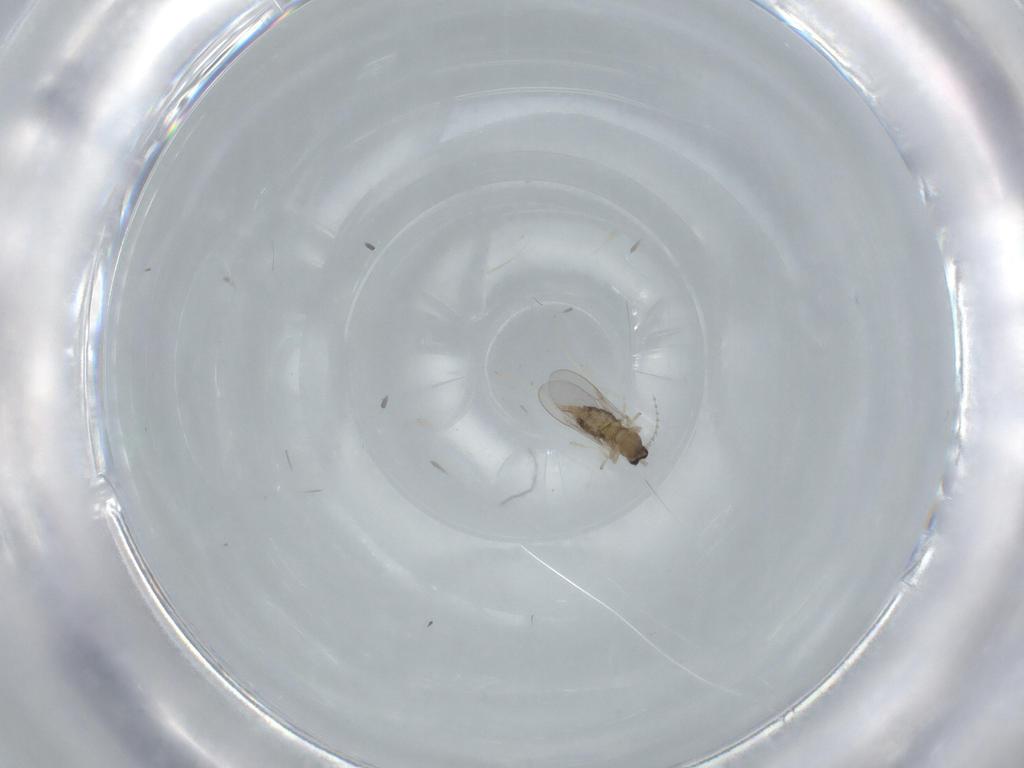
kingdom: Animalia
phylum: Arthropoda
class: Insecta
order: Diptera
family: Cecidomyiidae
